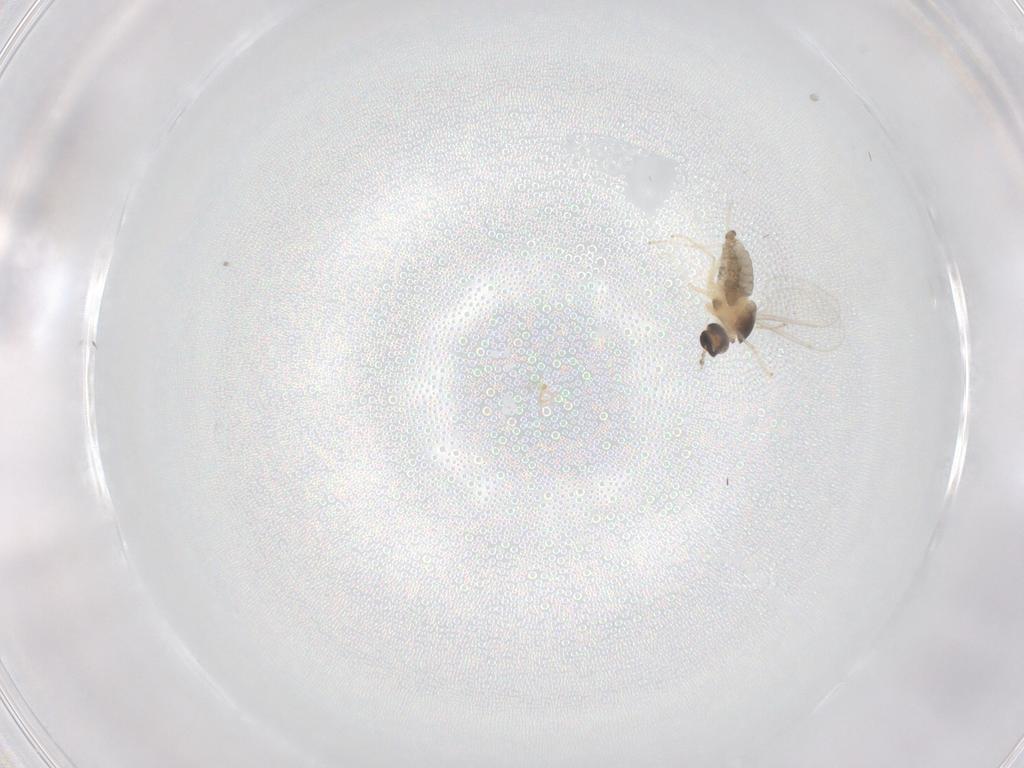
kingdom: Animalia
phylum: Arthropoda
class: Insecta
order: Diptera
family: Cecidomyiidae
